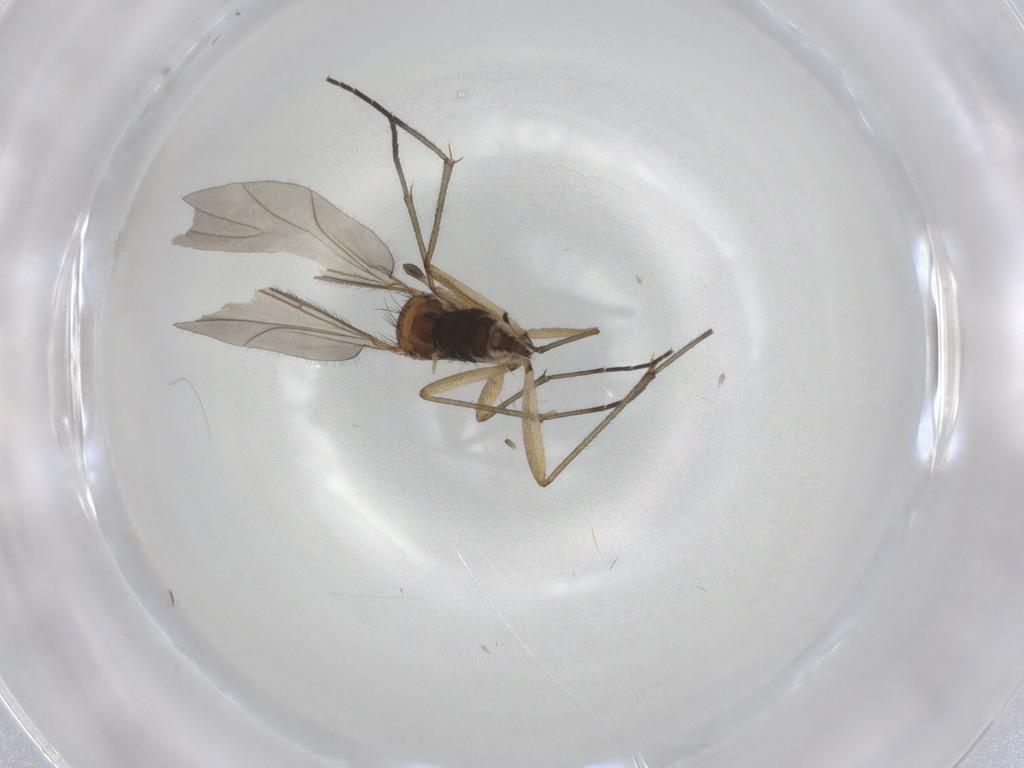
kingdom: Animalia
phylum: Arthropoda
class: Insecta
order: Diptera
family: Sciaridae
